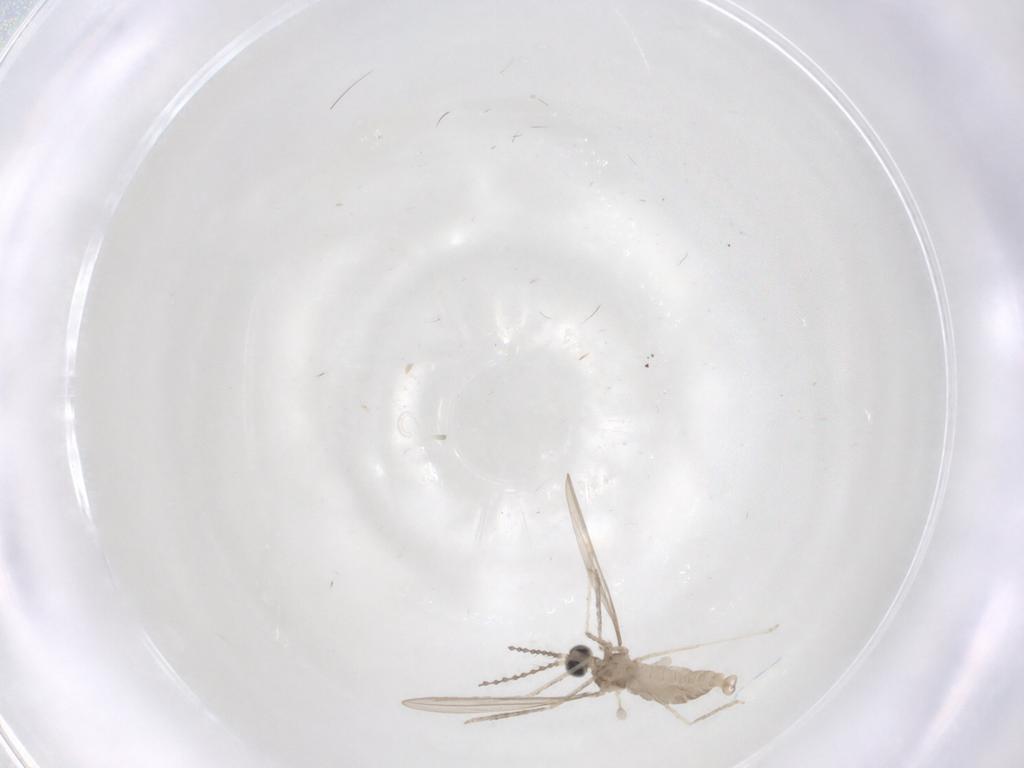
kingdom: Animalia
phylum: Arthropoda
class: Insecta
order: Diptera
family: Cecidomyiidae
